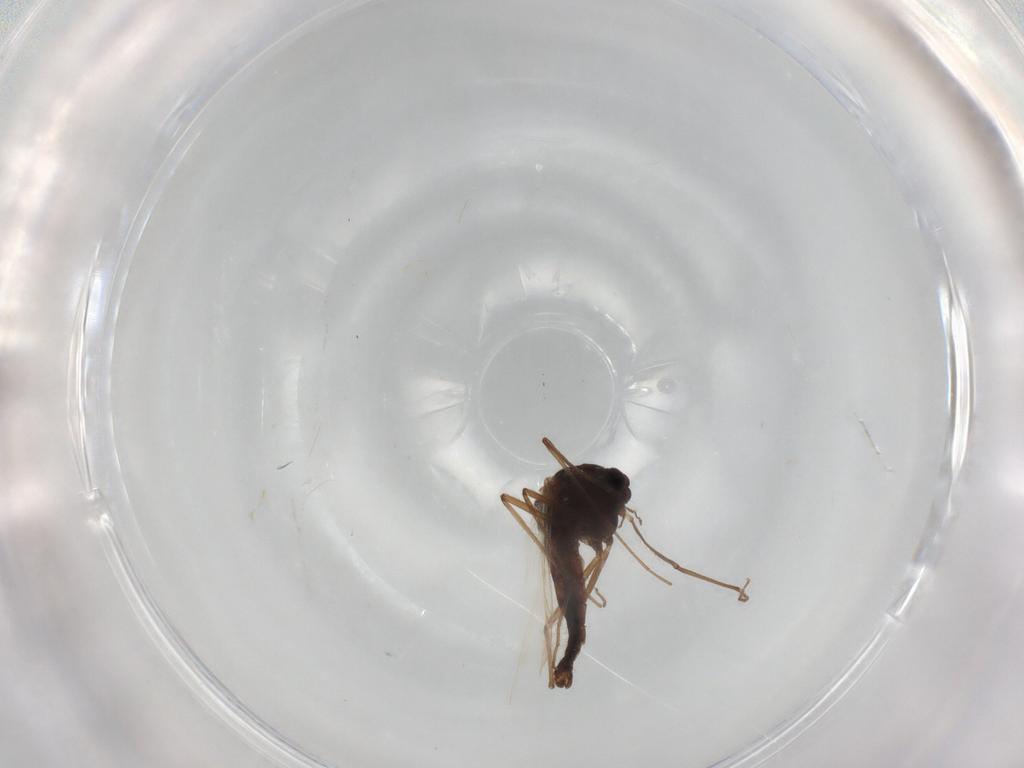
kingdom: Animalia
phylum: Arthropoda
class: Insecta
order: Diptera
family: Chironomidae
